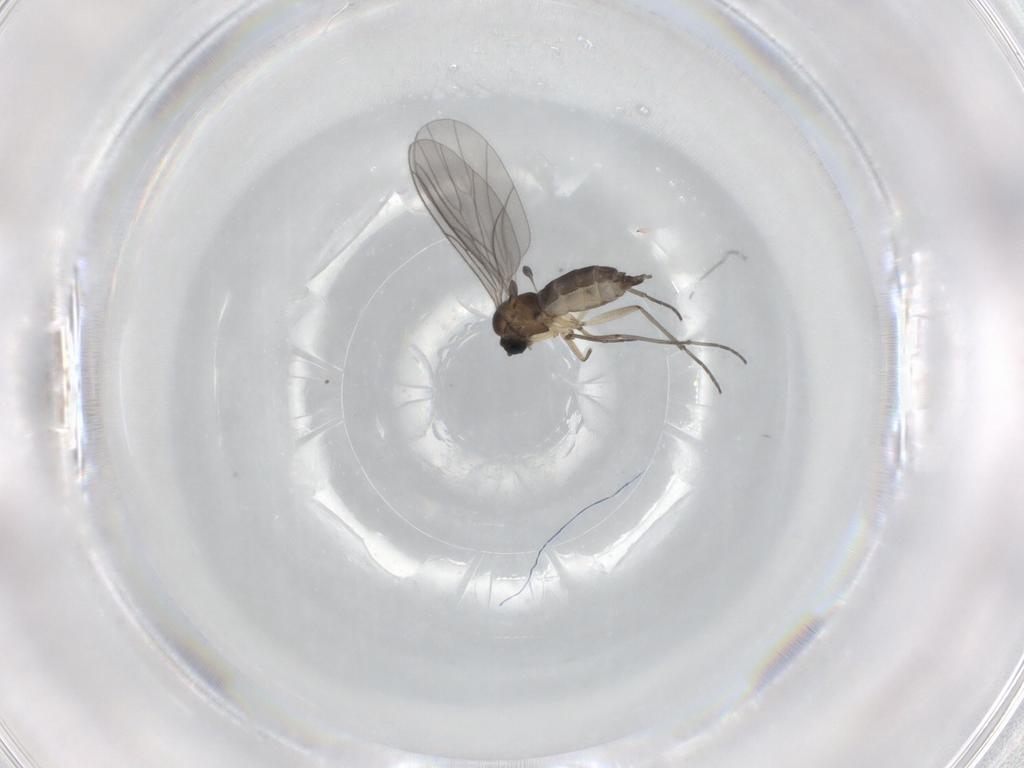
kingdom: Animalia
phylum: Arthropoda
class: Insecta
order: Diptera
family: Sciaridae
